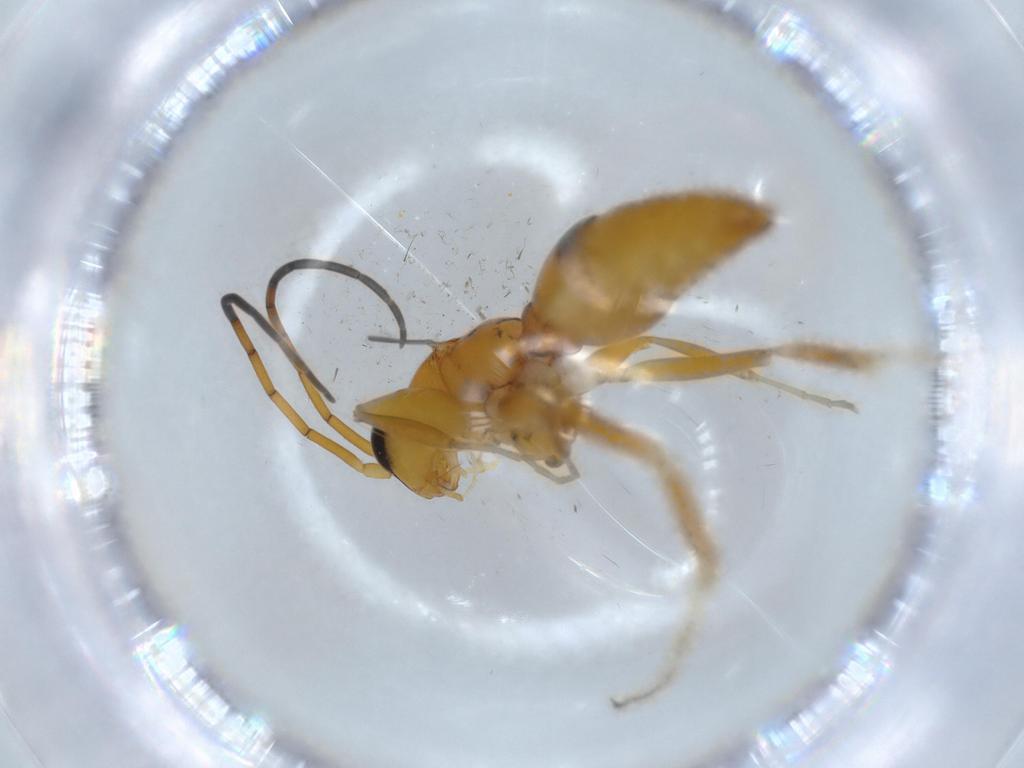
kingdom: Animalia
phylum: Arthropoda
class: Insecta
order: Hymenoptera
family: Rhopalosomatidae
